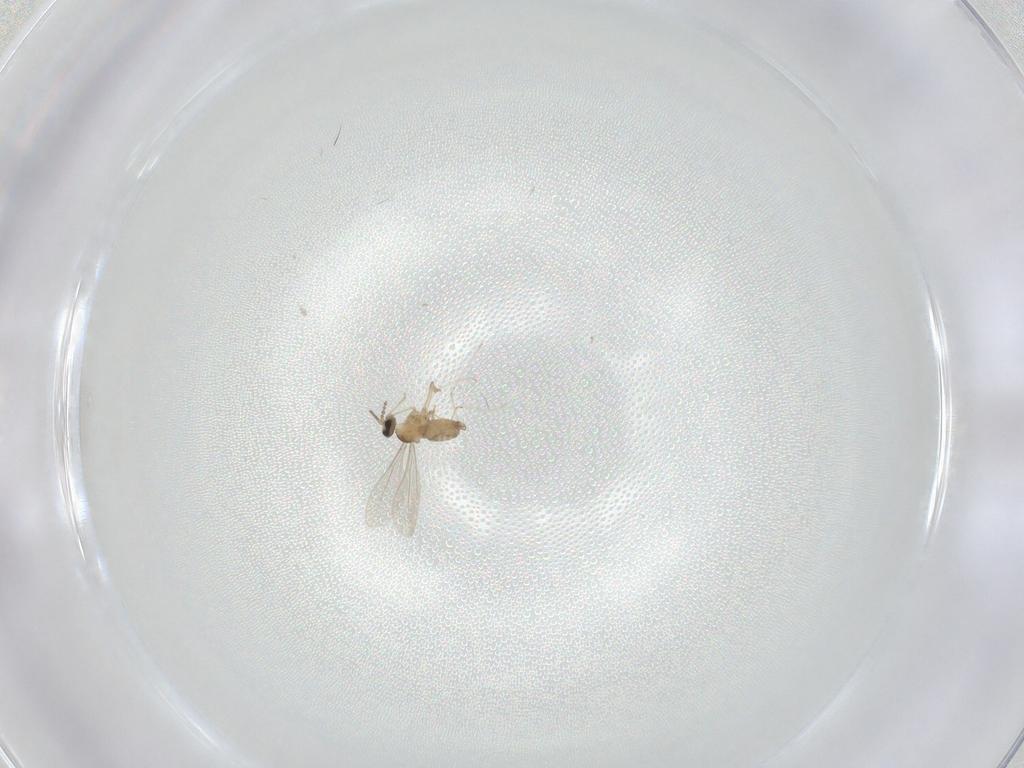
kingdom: Animalia
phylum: Arthropoda
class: Insecta
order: Diptera
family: Cecidomyiidae
